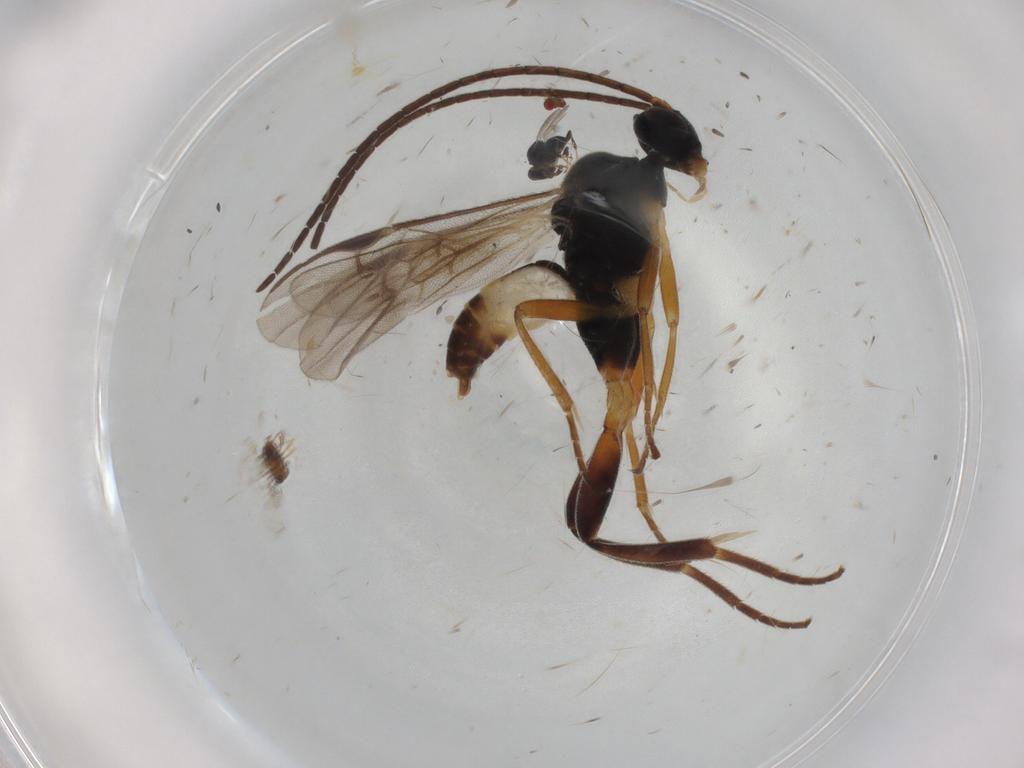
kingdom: Animalia
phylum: Arthropoda
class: Insecta
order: Hymenoptera
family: Braconidae
